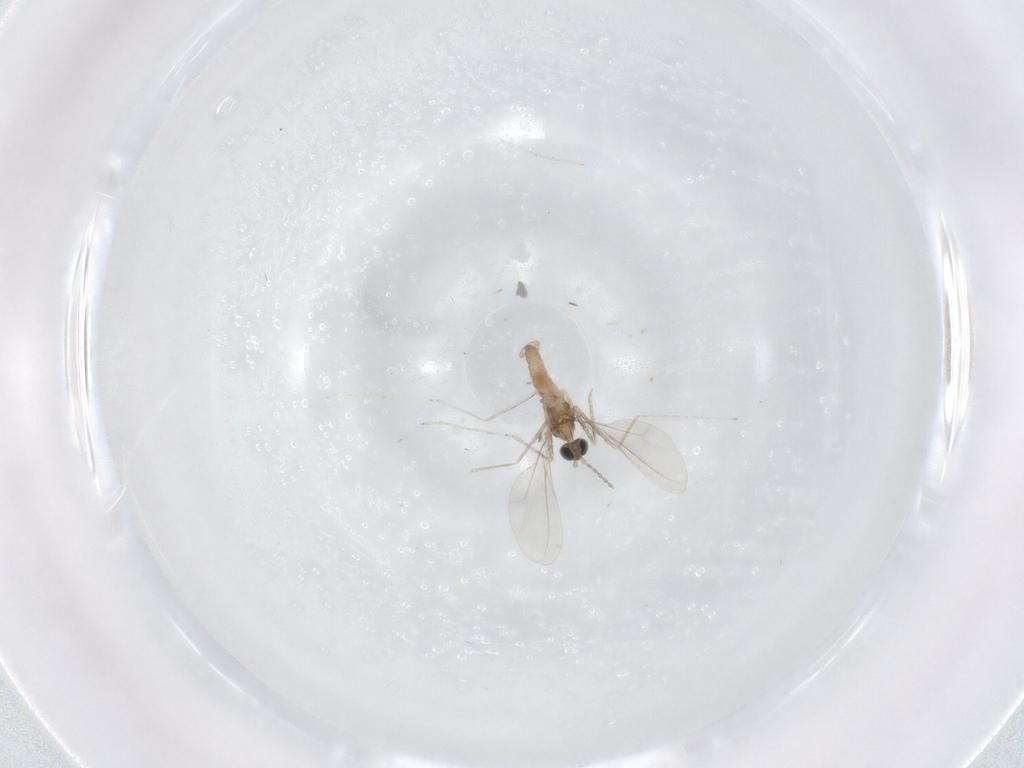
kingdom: Animalia
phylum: Arthropoda
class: Insecta
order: Diptera
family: Cecidomyiidae
